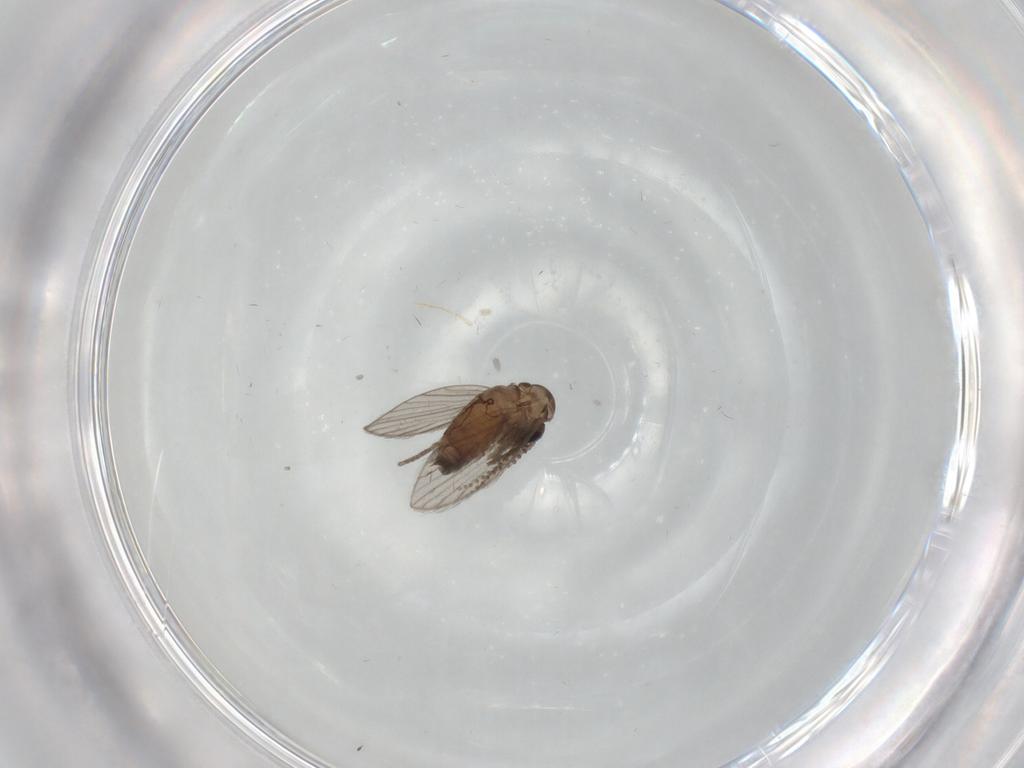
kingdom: Animalia
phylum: Arthropoda
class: Insecta
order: Diptera
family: Psychodidae
